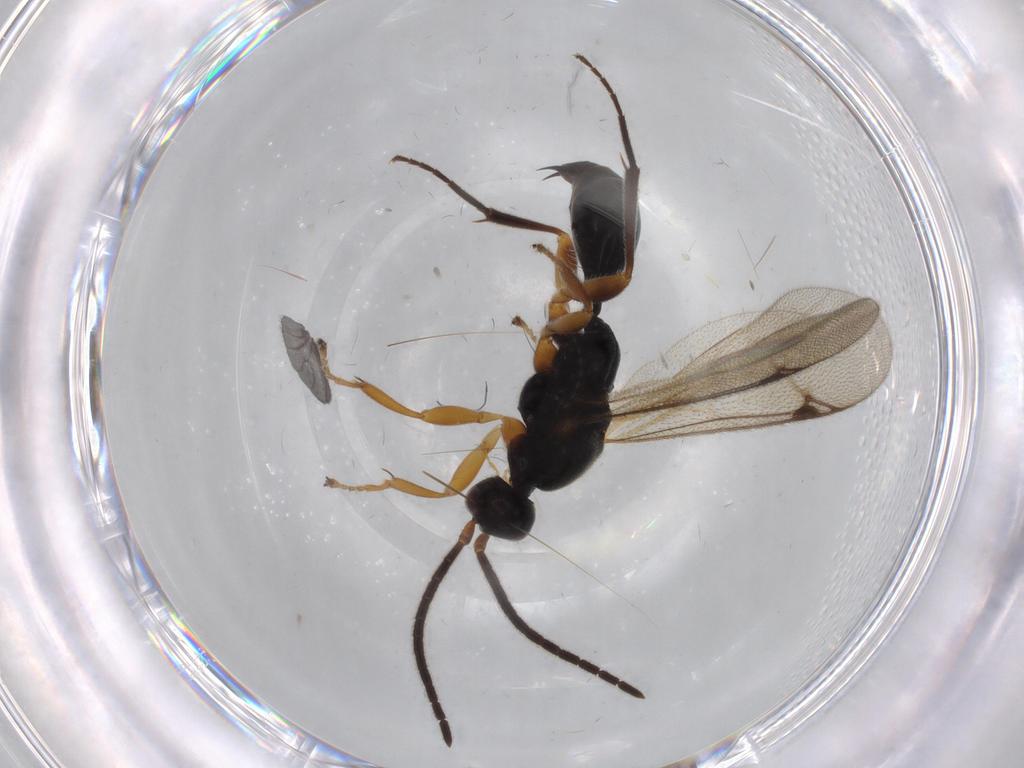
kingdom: Animalia
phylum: Arthropoda
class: Insecta
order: Hymenoptera
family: Proctotrupidae
